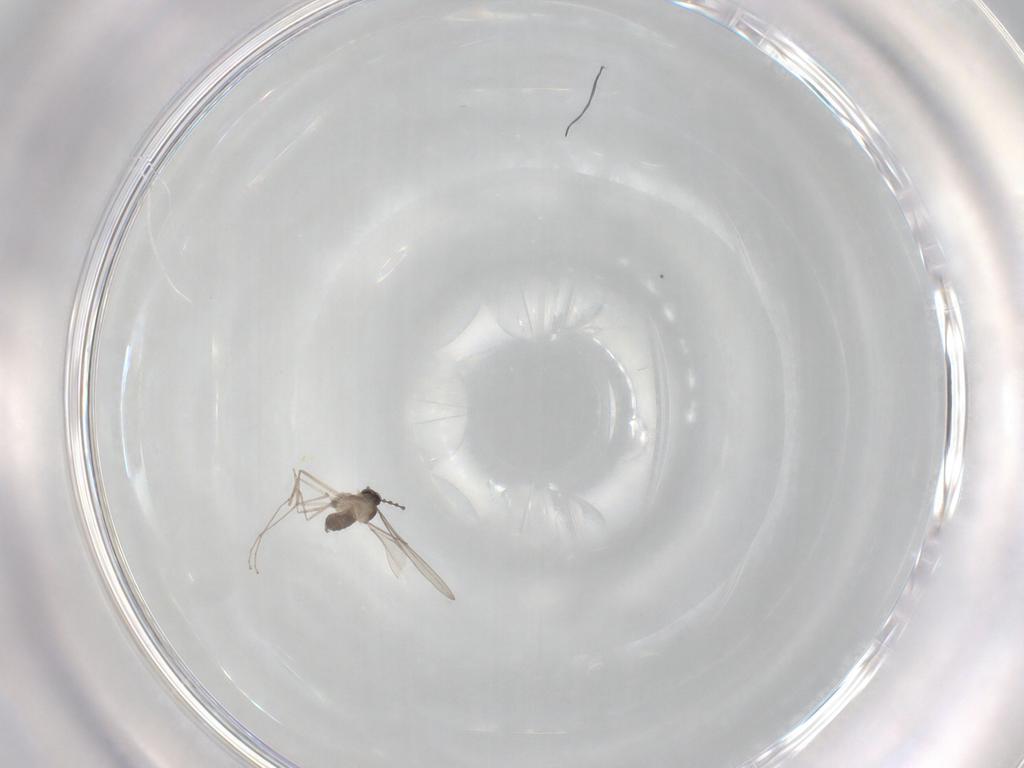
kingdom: Animalia
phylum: Arthropoda
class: Insecta
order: Diptera
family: Cecidomyiidae
